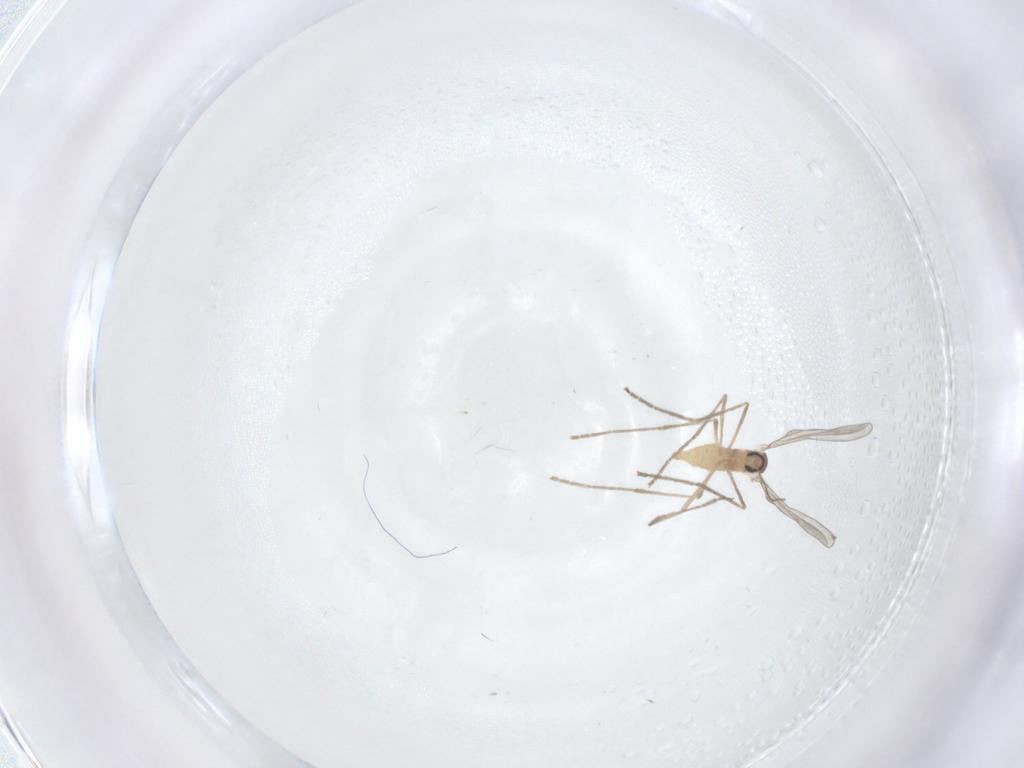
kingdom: Animalia
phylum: Arthropoda
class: Insecta
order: Diptera
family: Cecidomyiidae
